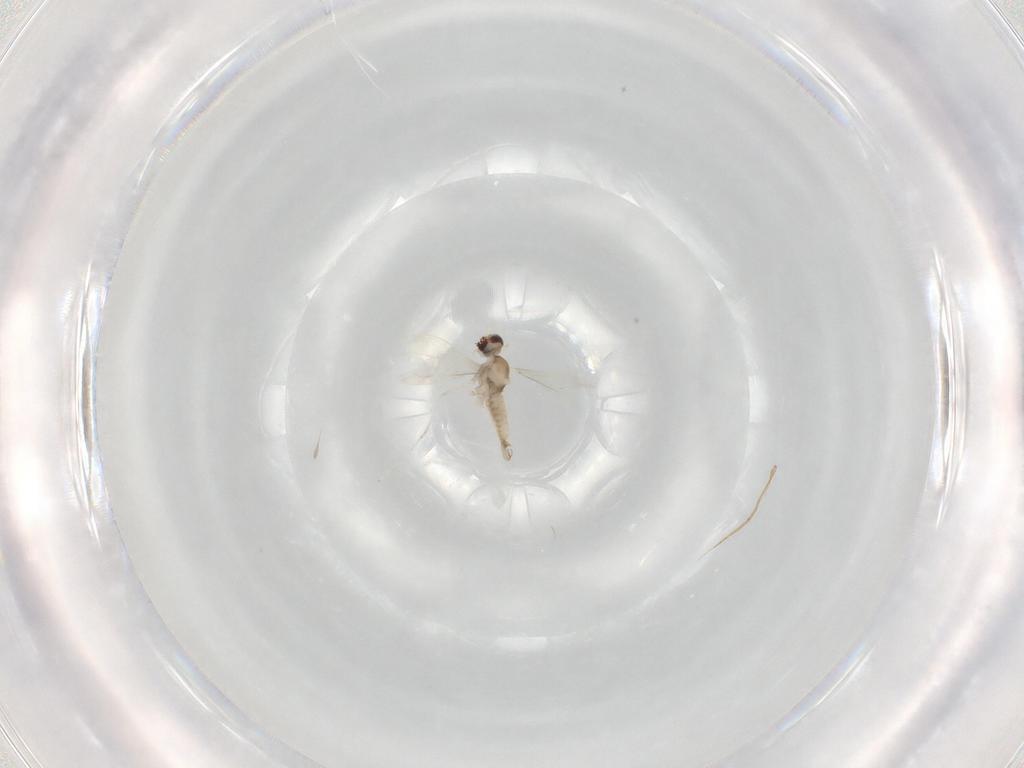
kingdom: Animalia
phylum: Arthropoda
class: Insecta
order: Diptera
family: Cecidomyiidae
